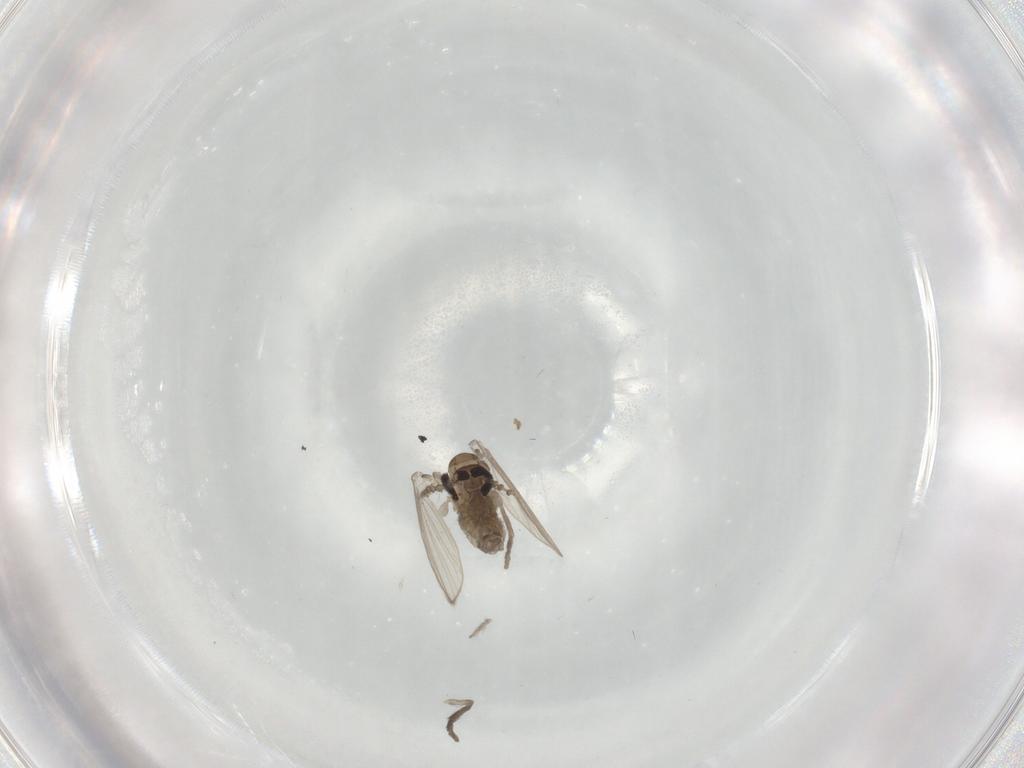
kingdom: Animalia
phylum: Arthropoda
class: Insecta
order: Diptera
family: Psychodidae
